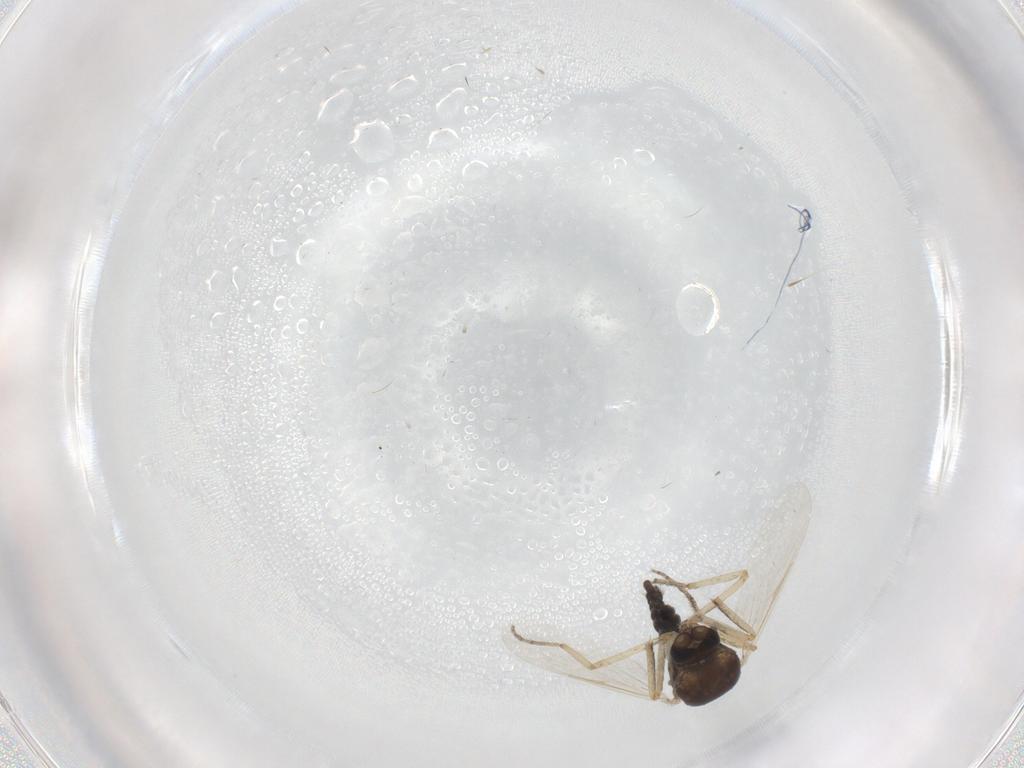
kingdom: Animalia
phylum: Arthropoda
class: Insecta
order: Diptera
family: Ceratopogonidae
